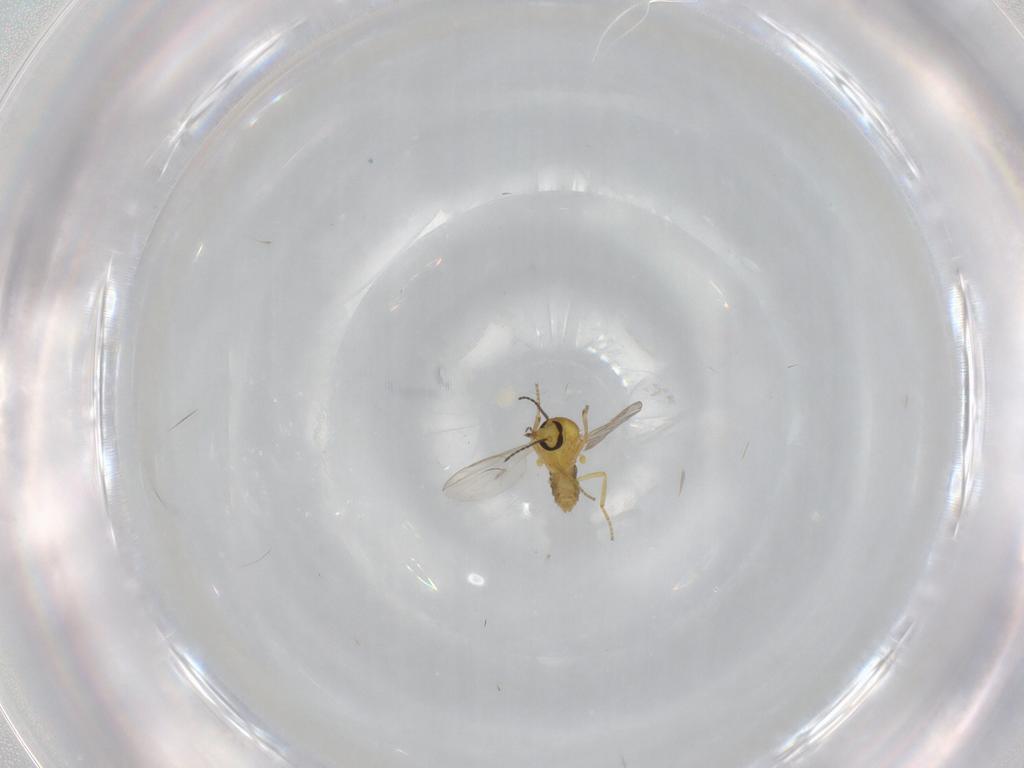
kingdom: Animalia
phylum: Arthropoda
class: Insecta
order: Diptera
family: Ceratopogonidae
